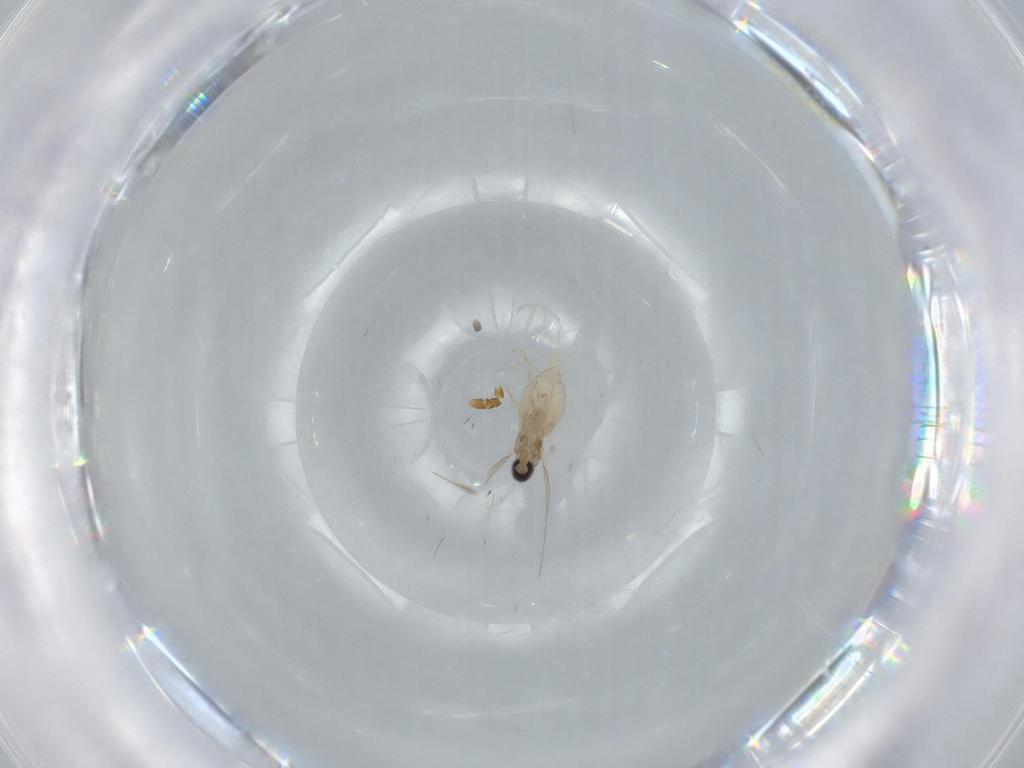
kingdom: Animalia
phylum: Arthropoda
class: Insecta
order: Diptera
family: Cecidomyiidae
